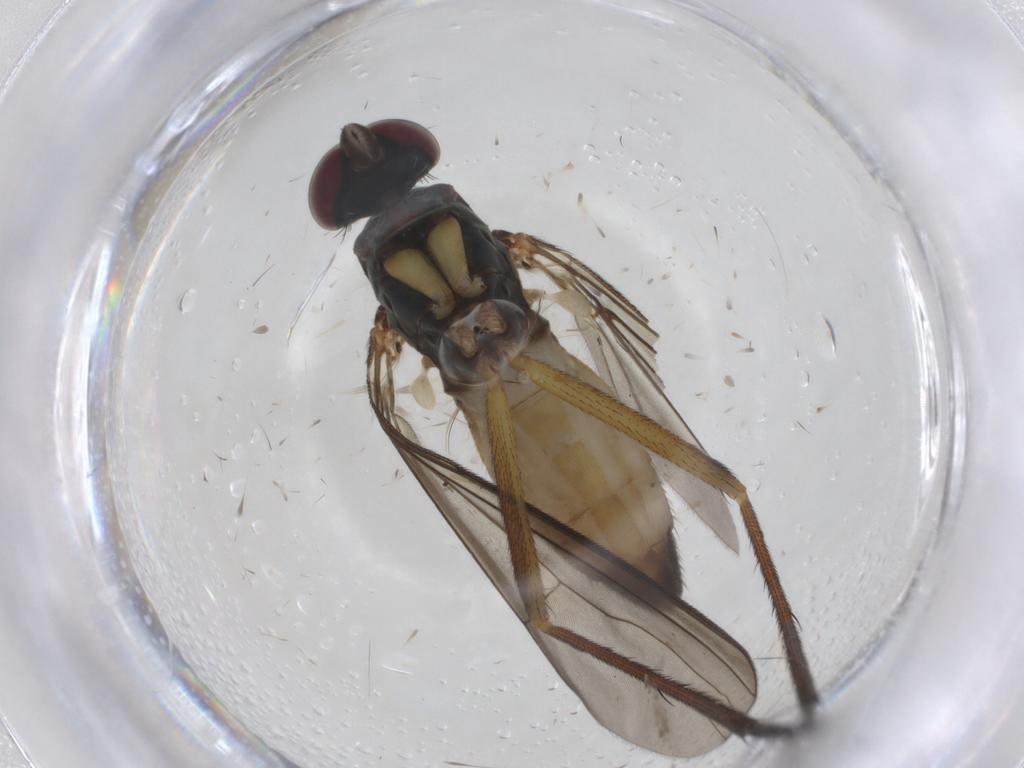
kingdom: Animalia
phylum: Arthropoda
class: Insecta
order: Diptera
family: Dolichopodidae
